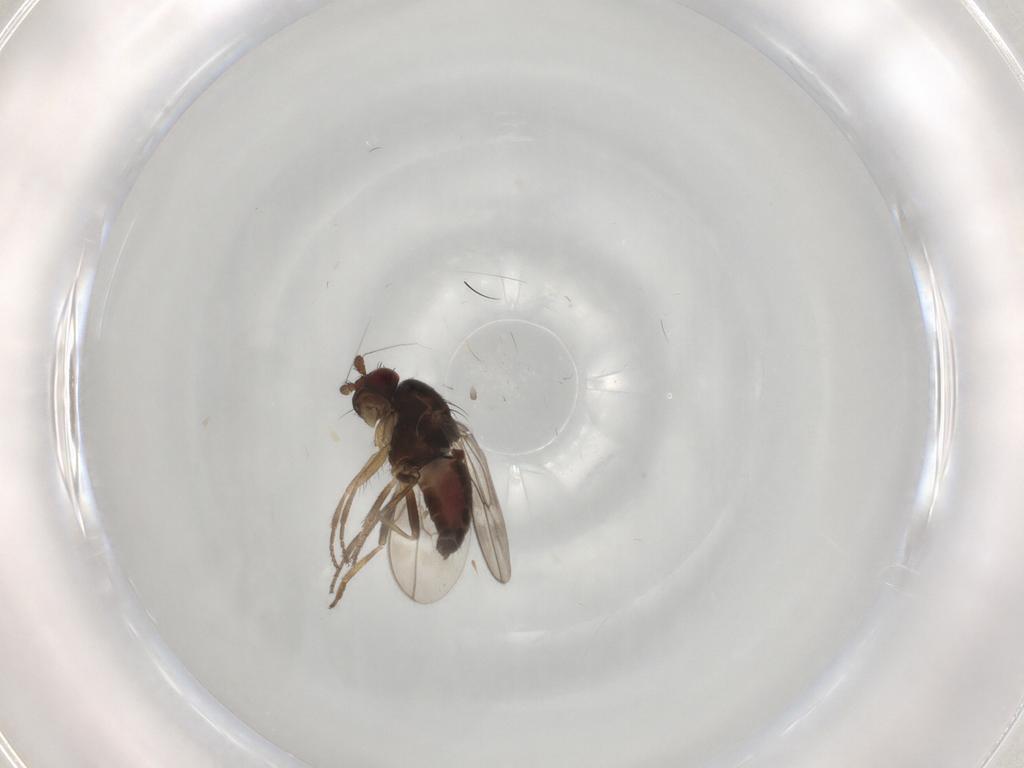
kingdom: Animalia
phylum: Arthropoda
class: Insecta
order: Diptera
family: Sphaeroceridae
